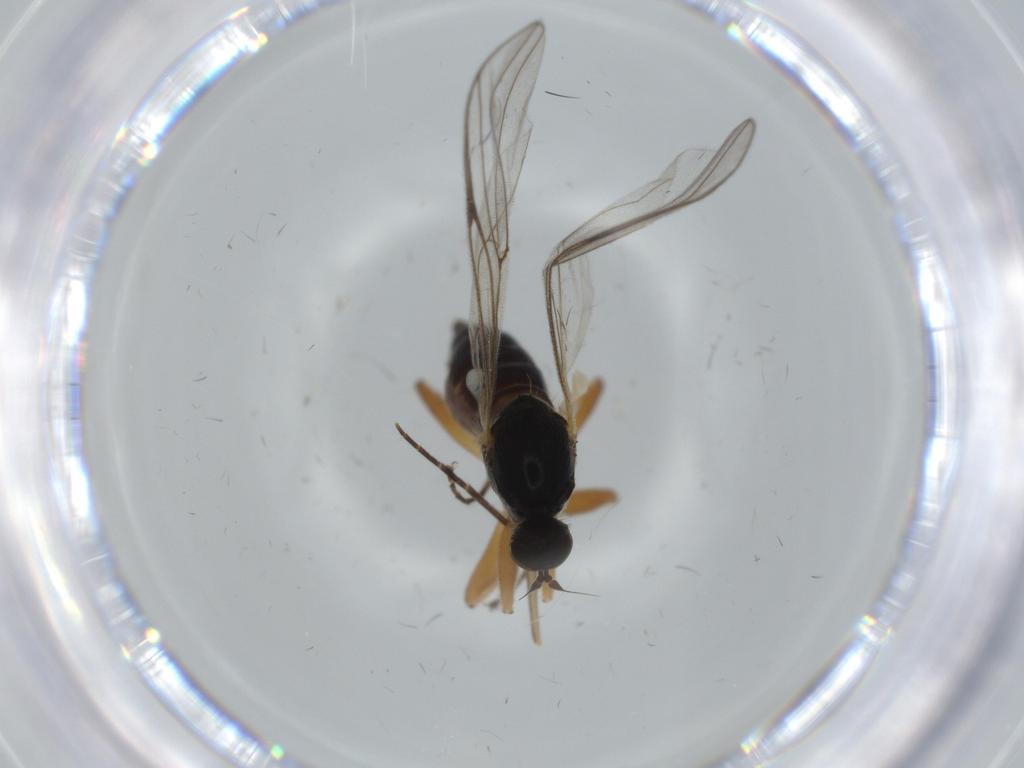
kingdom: Animalia
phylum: Arthropoda
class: Insecta
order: Diptera
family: Hybotidae
